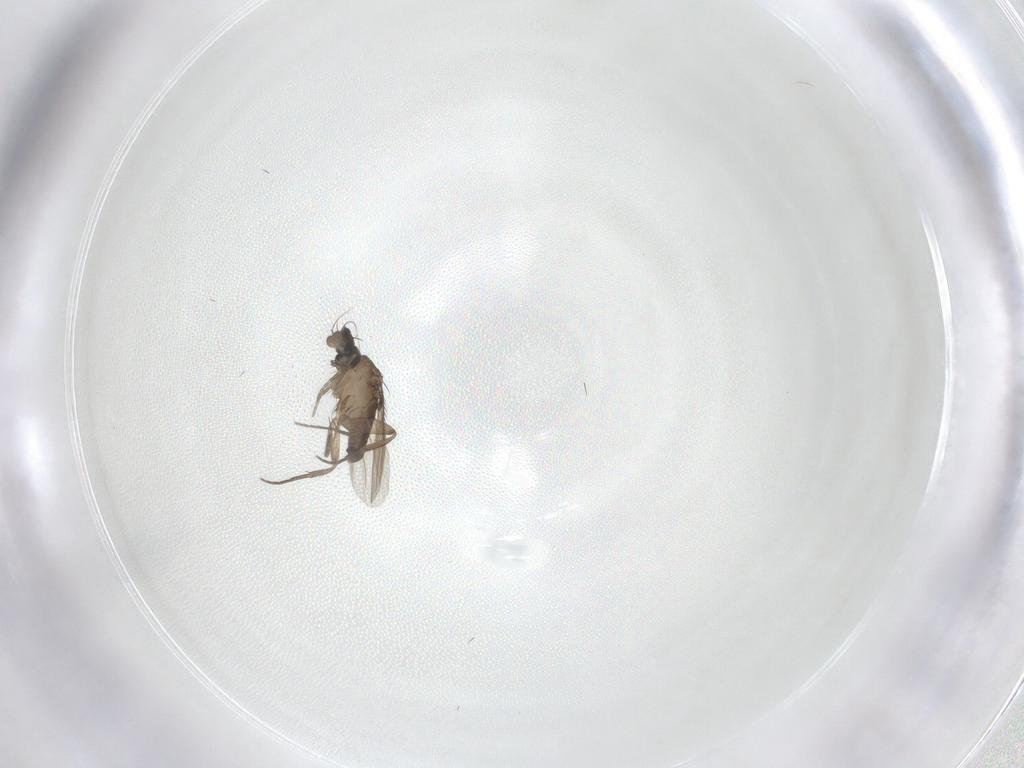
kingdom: Animalia
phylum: Arthropoda
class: Insecta
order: Diptera
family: Phoridae
